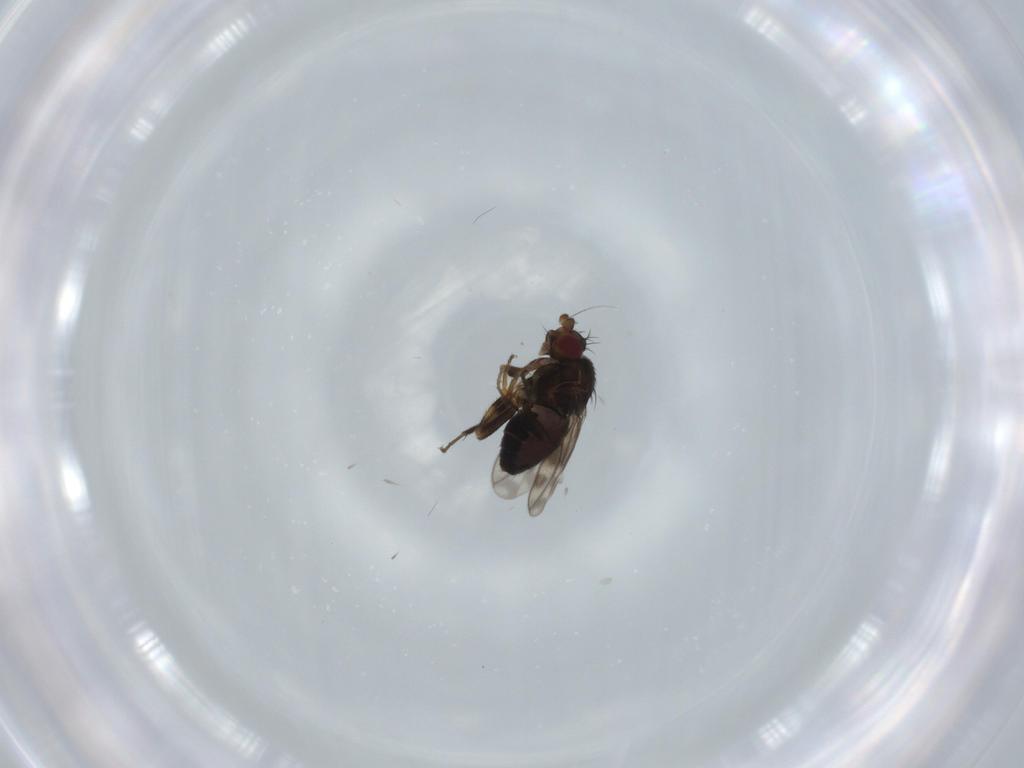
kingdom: Animalia
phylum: Arthropoda
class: Insecta
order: Diptera
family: Sphaeroceridae
